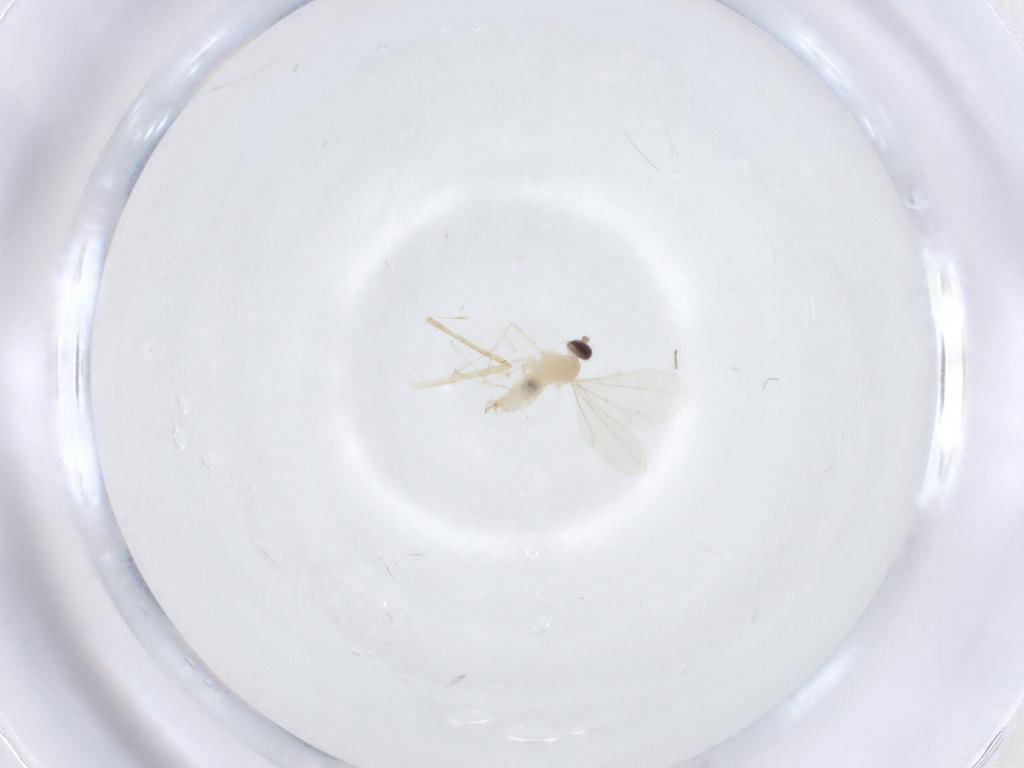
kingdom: Animalia
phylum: Arthropoda
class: Insecta
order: Diptera
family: Cecidomyiidae
